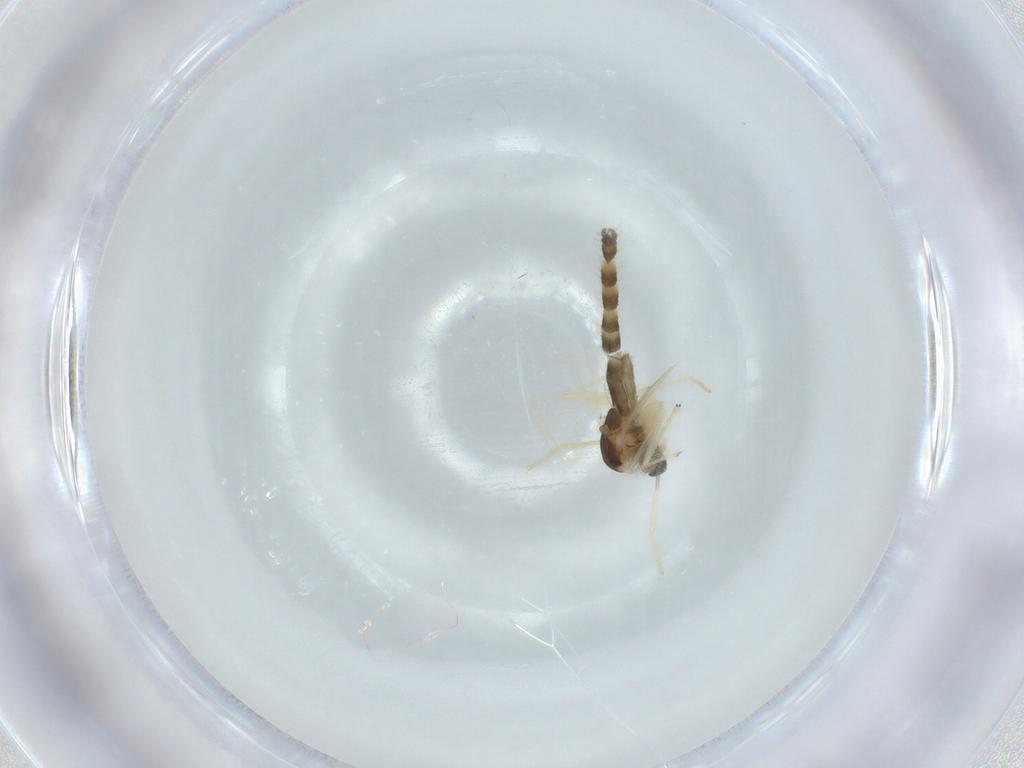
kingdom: Animalia
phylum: Arthropoda
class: Insecta
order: Diptera
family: Chironomidae
